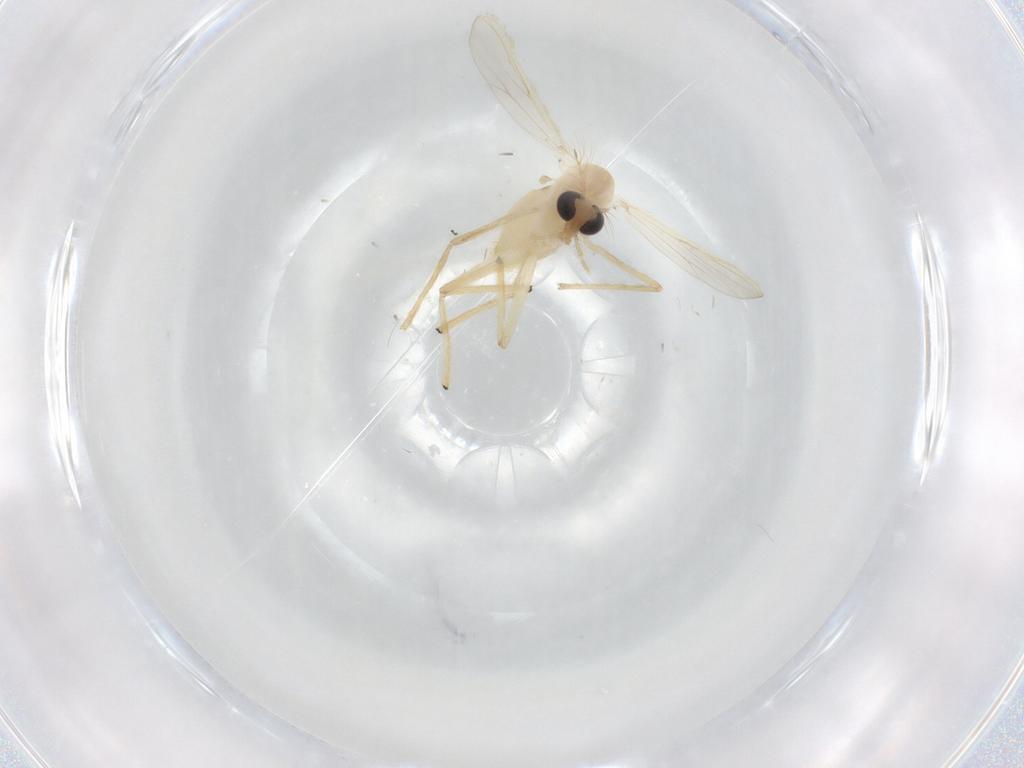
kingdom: Animalia
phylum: Arthropoda
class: Insecta
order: Diptera
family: Chironomidae
